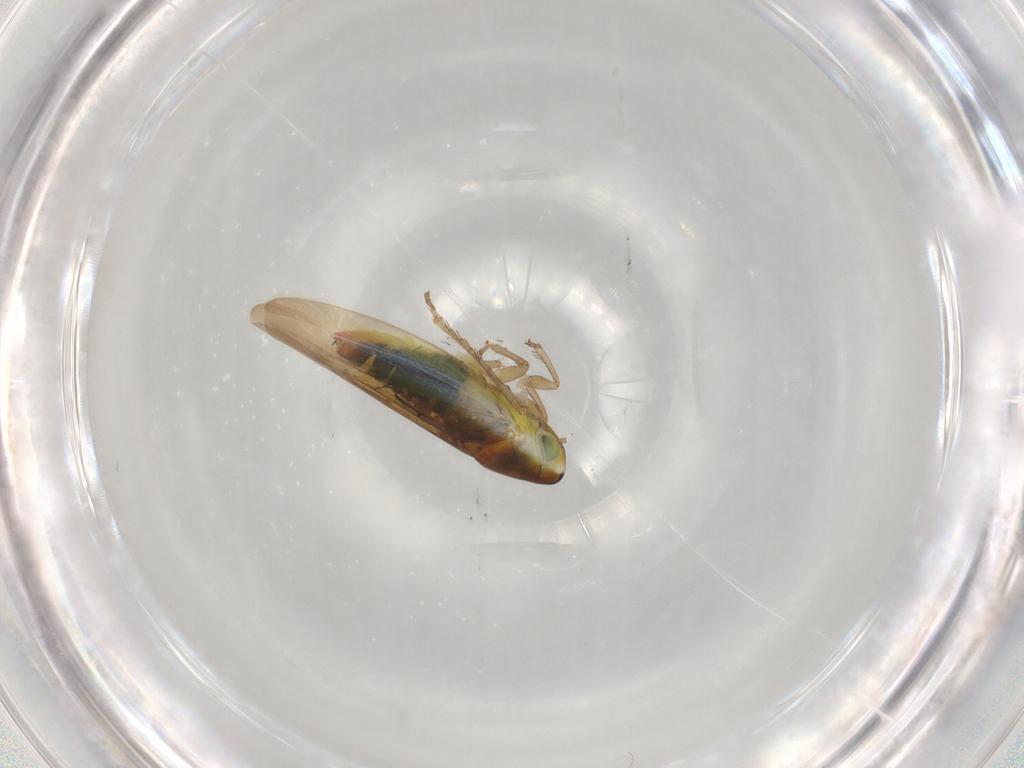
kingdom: Animalia
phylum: Arthropoda
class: Insecta
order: Hemiptera
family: Cicadellidae
